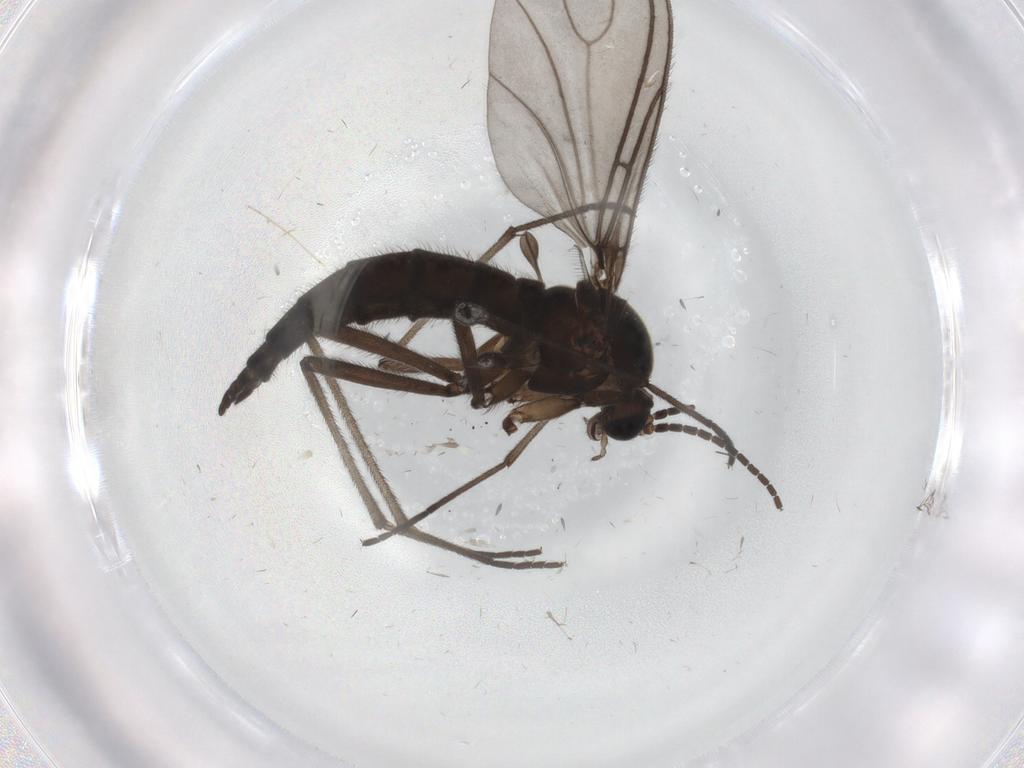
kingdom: Animalia
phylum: Arthropoda
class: Insecta
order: Diptera
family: Sciaridae
